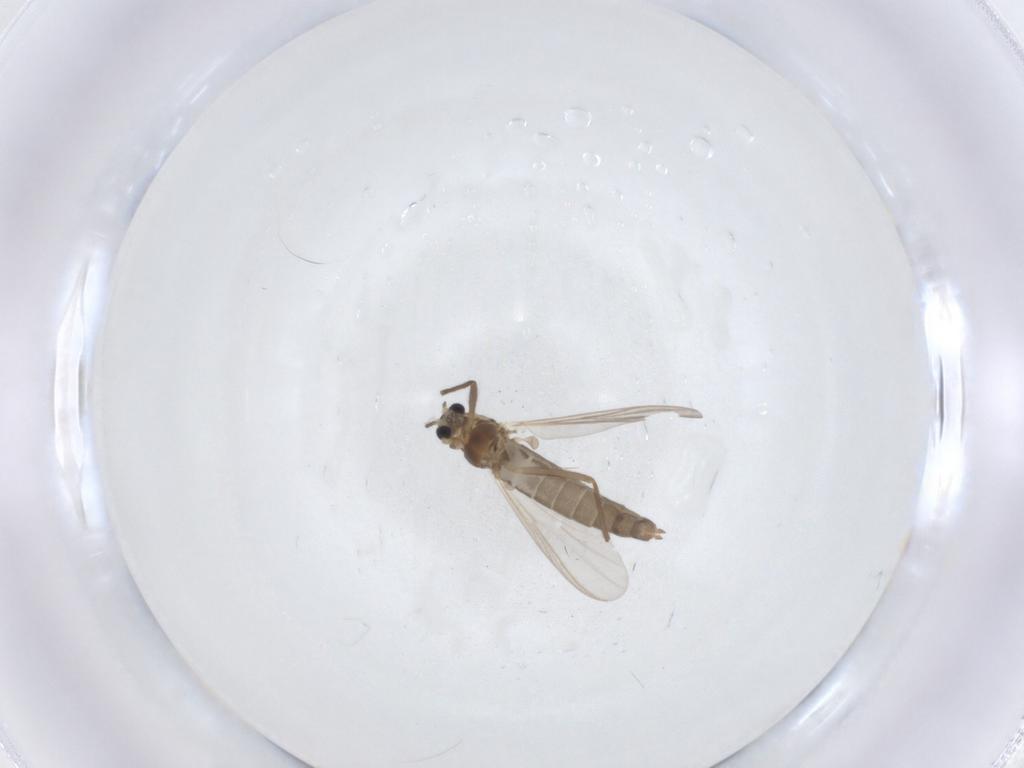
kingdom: Animalia
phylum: Arthropoda
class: Insecta
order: Diptera
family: Chironomidae
